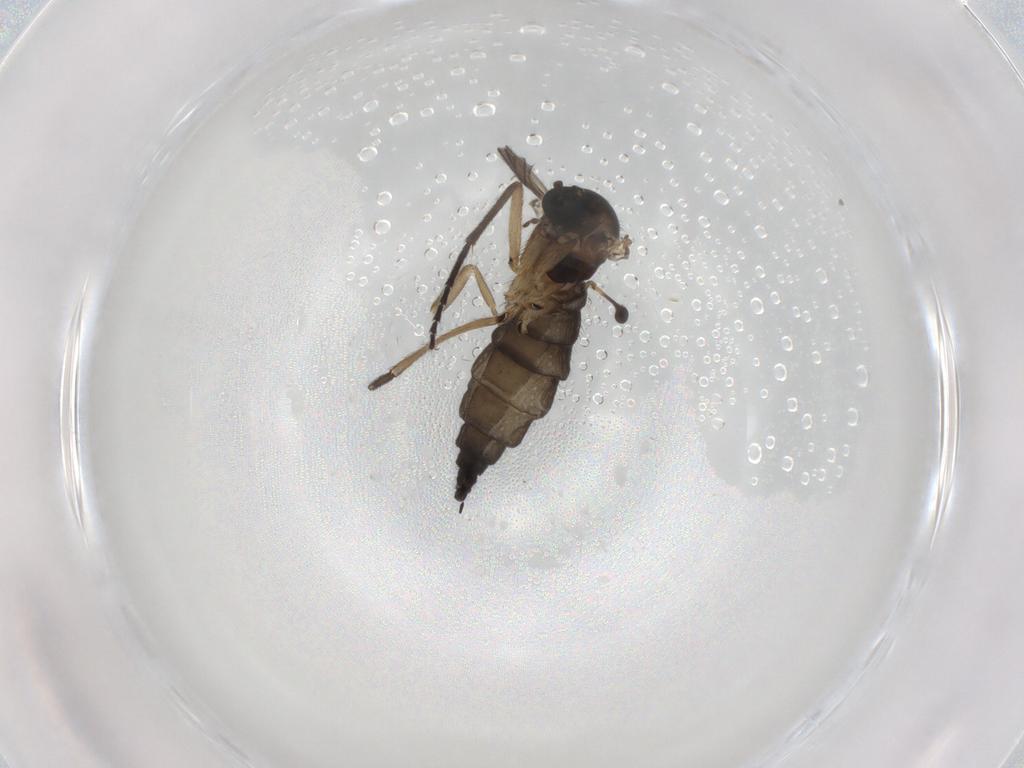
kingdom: Animalia
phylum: Arthropoda
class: Insecta
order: Diptera
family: Sciaridae
